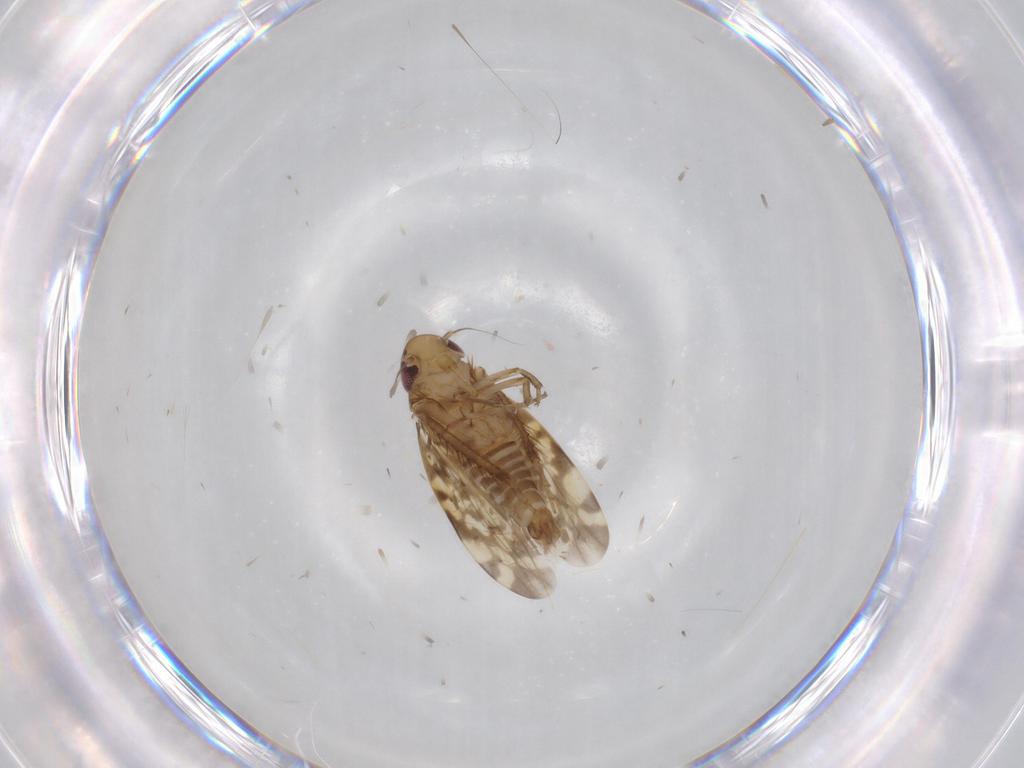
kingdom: Animalia
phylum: Arthropoda
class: Insecta
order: Hemiptera
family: Cicadellidae
